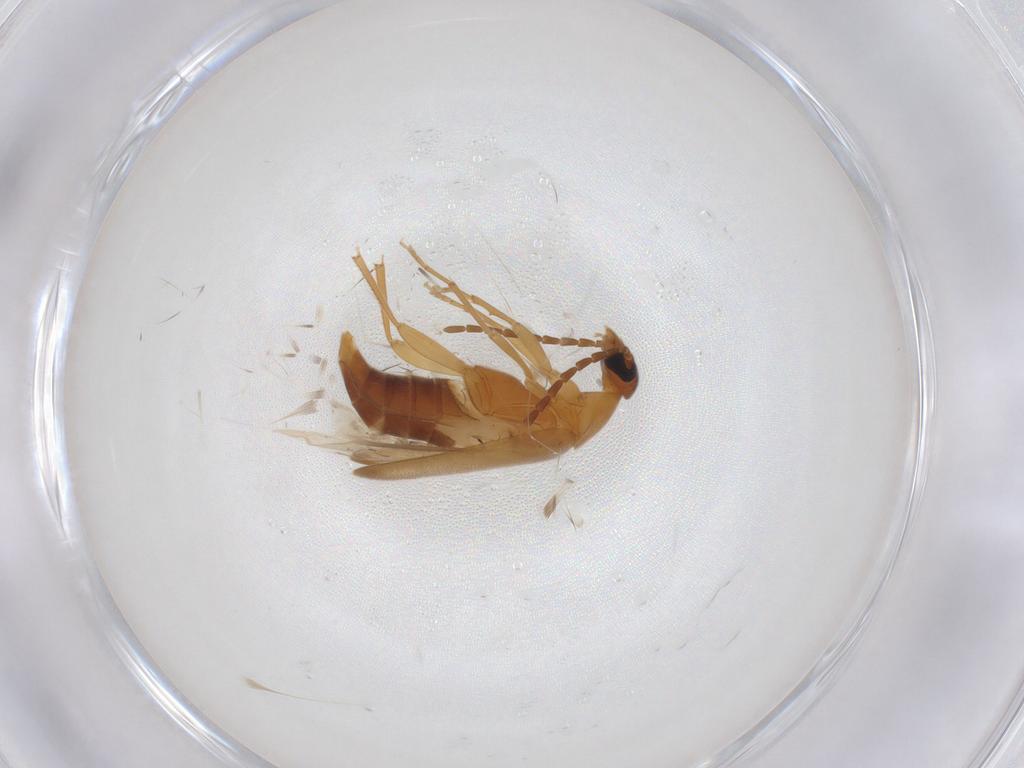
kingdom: Animalia
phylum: Arthropoda
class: Insecta
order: Coleoptera
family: Scraptiidae
